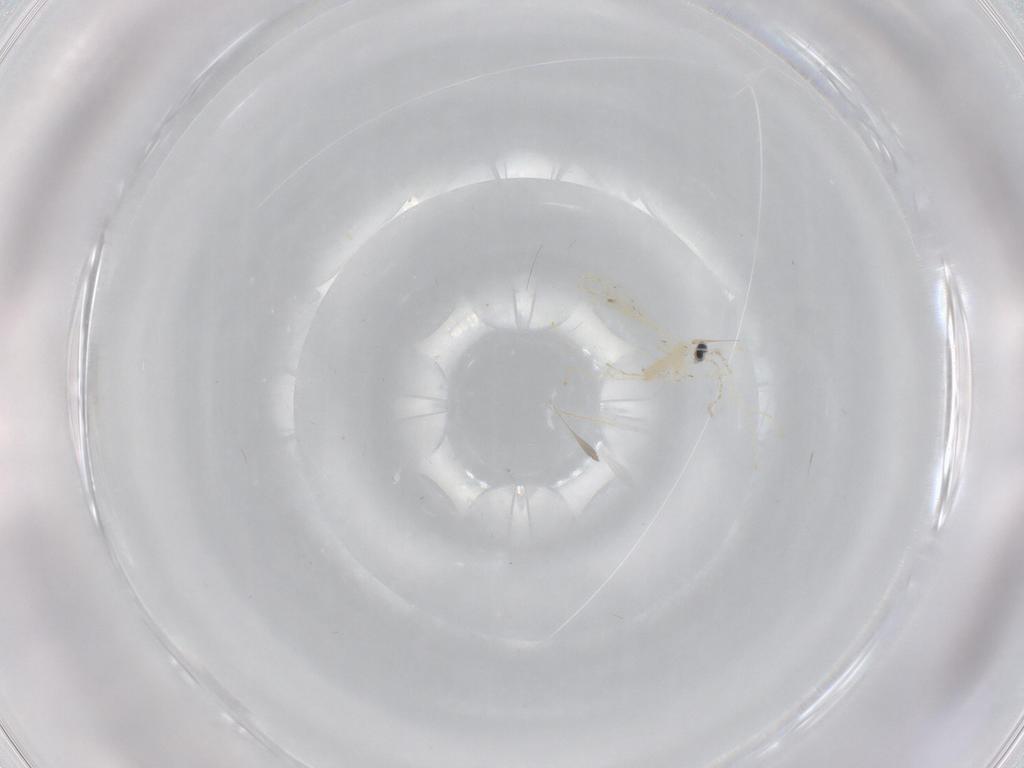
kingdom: Animalia
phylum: Arthropoda
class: Insecta
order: Diptera
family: Cecidomyiidae
